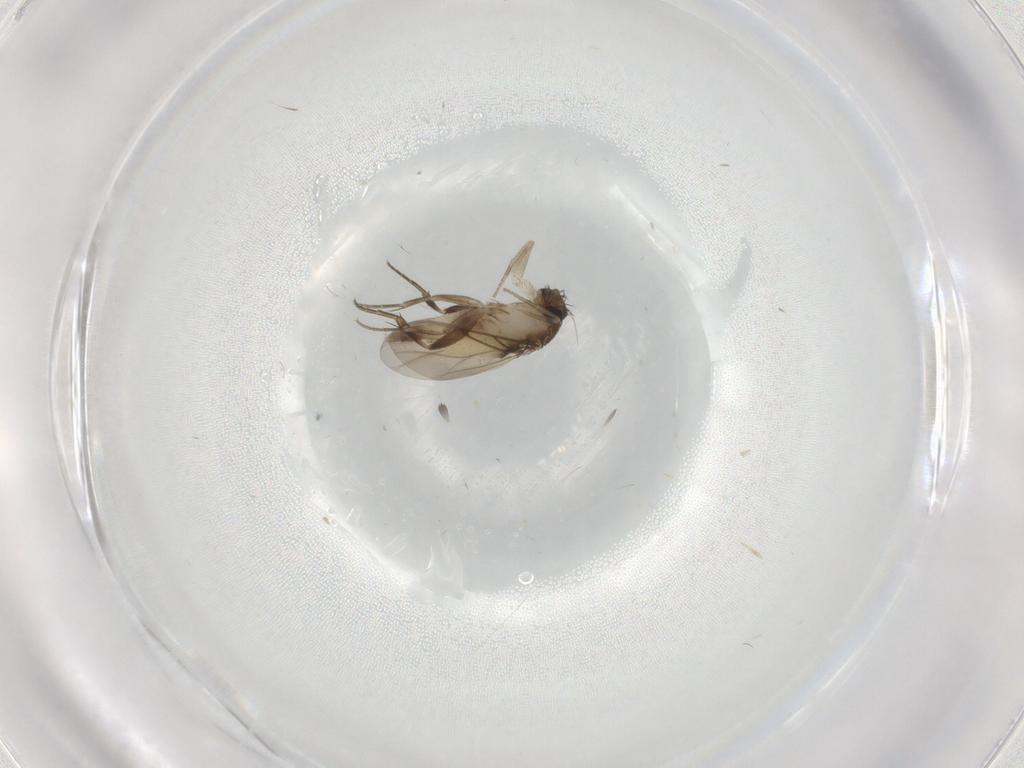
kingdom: Animalia
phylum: Arthropoda
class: Insecta
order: Diptera
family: Phoridae
